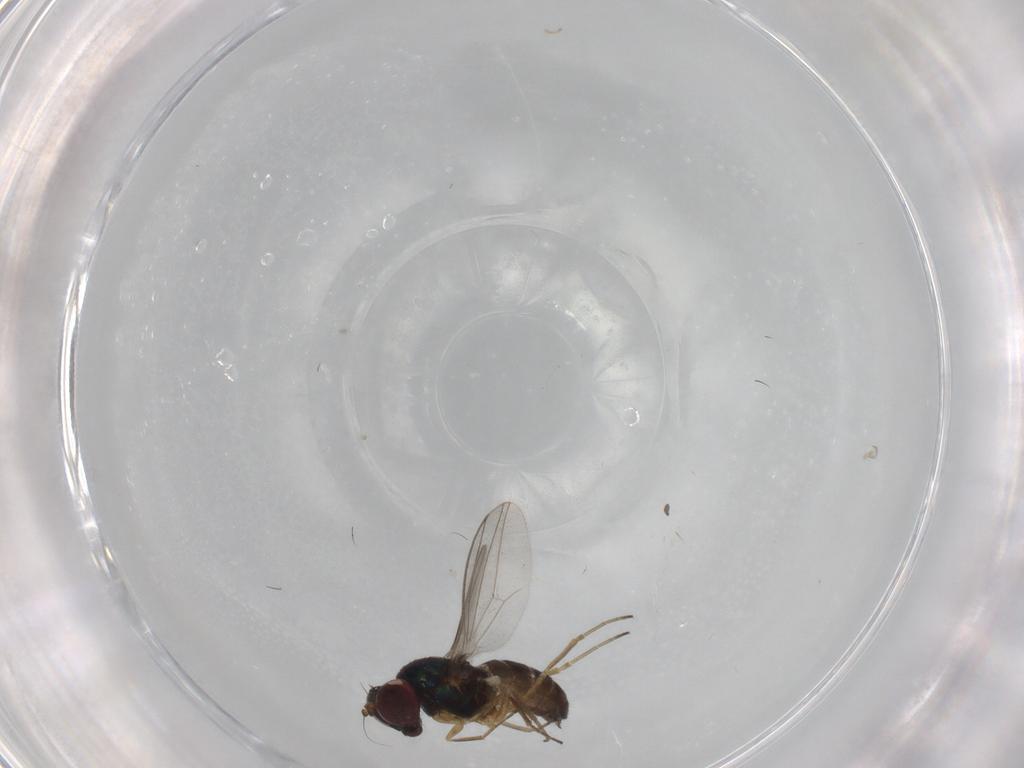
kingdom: Animalia
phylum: Arthropoda
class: Insecta
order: Diptera
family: Dolichopodidae
